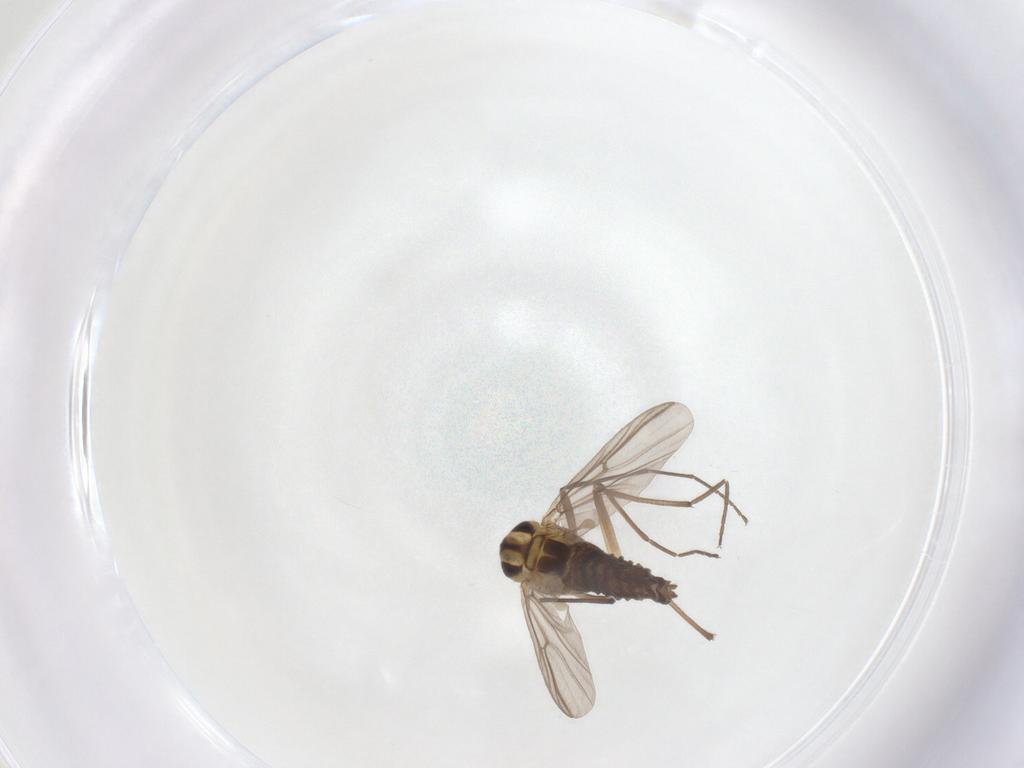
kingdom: Animalia
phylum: Arthropoda
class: Insecta
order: Diptera
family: Chironomidae
